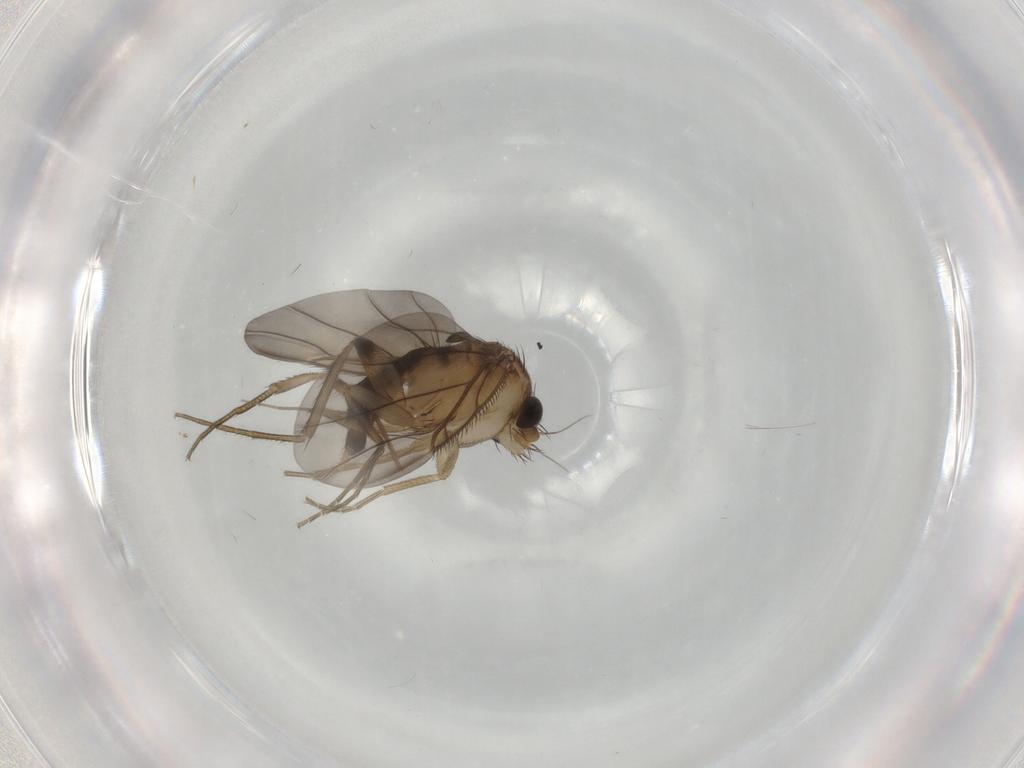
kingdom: Animalia
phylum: Arthropoda
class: Insecta
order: Diptera
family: Phoridae
